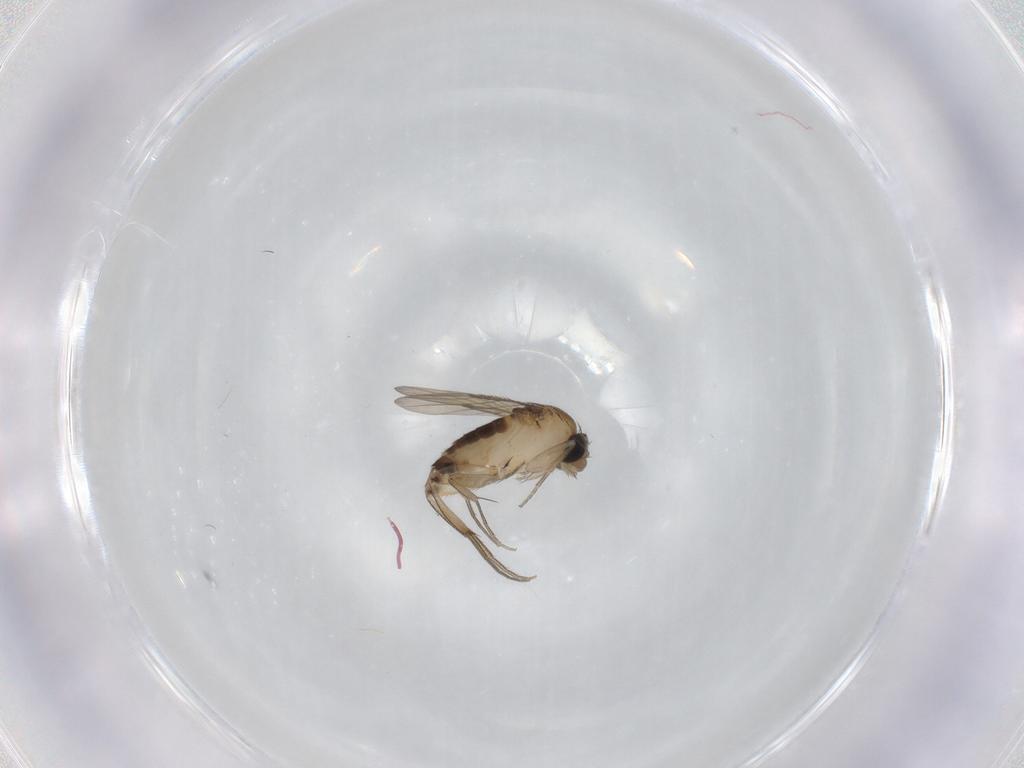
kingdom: Animalia
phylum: Arthropoda
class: Insecta
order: Diptera
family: Phoridae
